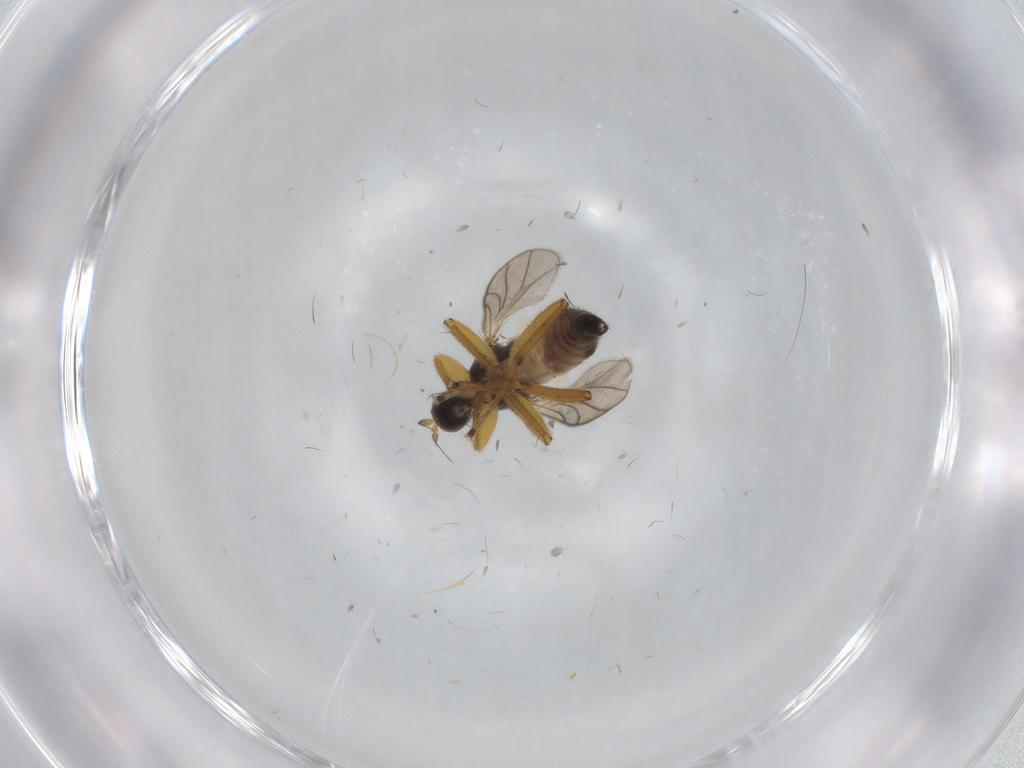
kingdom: Animalia
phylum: Arthropoda
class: Insecta
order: Diptera
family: Hybotidae
